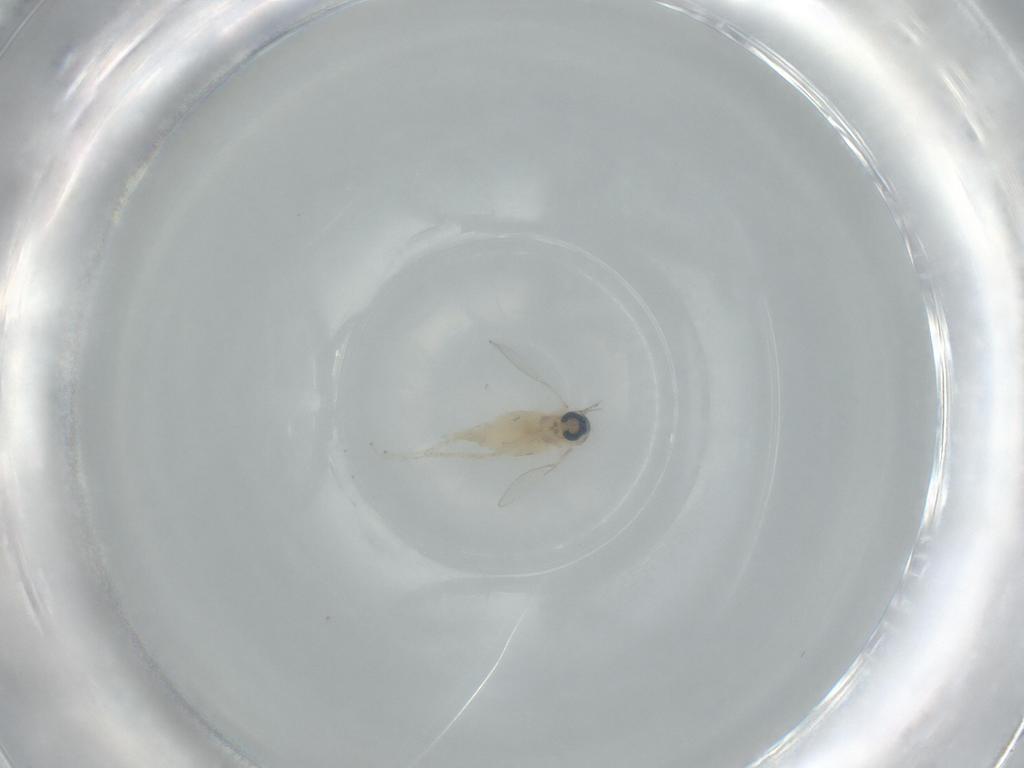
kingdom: Animalia
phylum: Arthropoda
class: Insecta
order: Diptera
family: Cecidomyiidae
